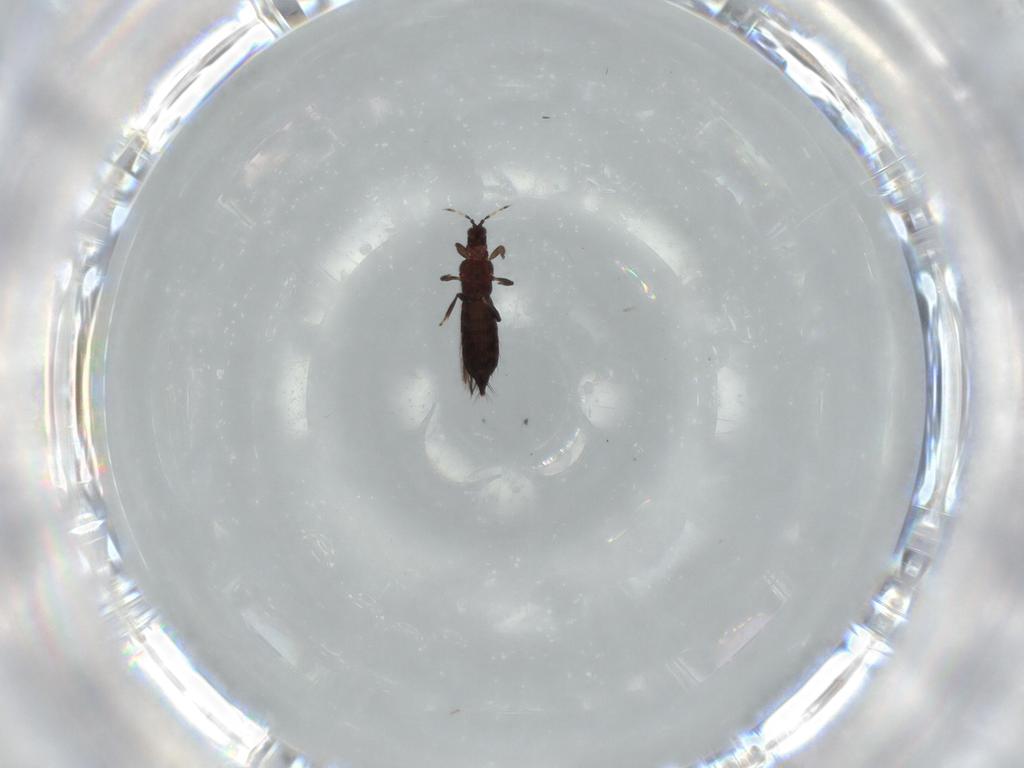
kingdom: Animalia
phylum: Arthropoda
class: Insecta
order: Thysanoptera
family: Thripidae
